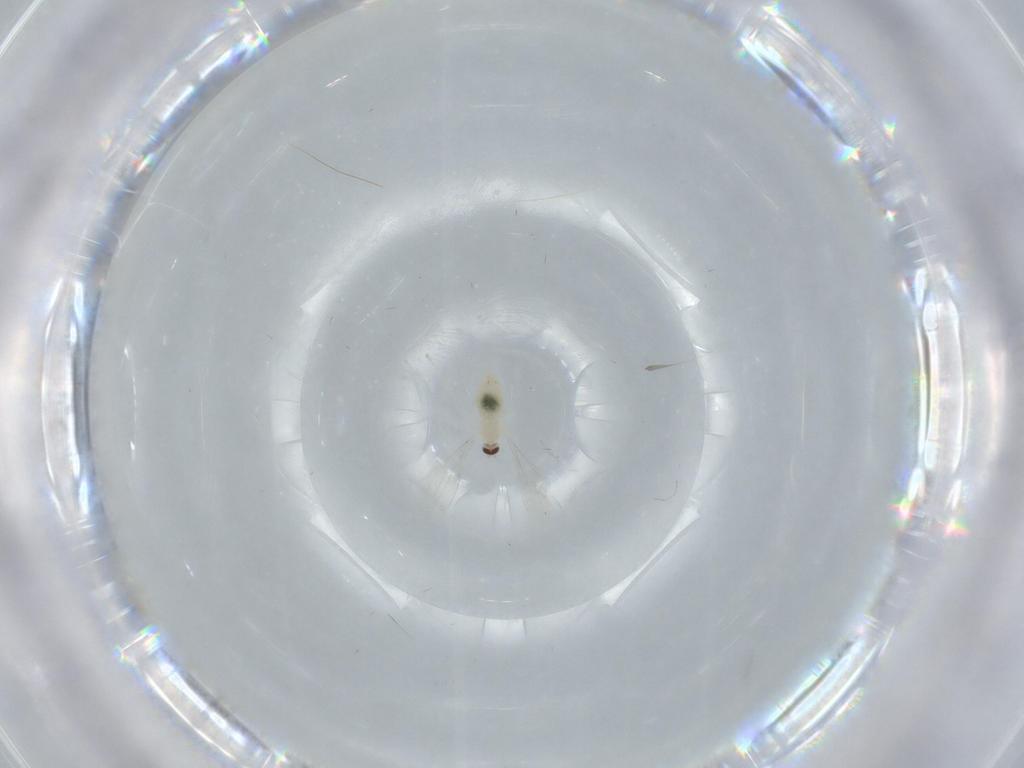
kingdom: Animalia
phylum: Arthropoda
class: Insecta
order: Diptera
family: Cecidomyiidae
